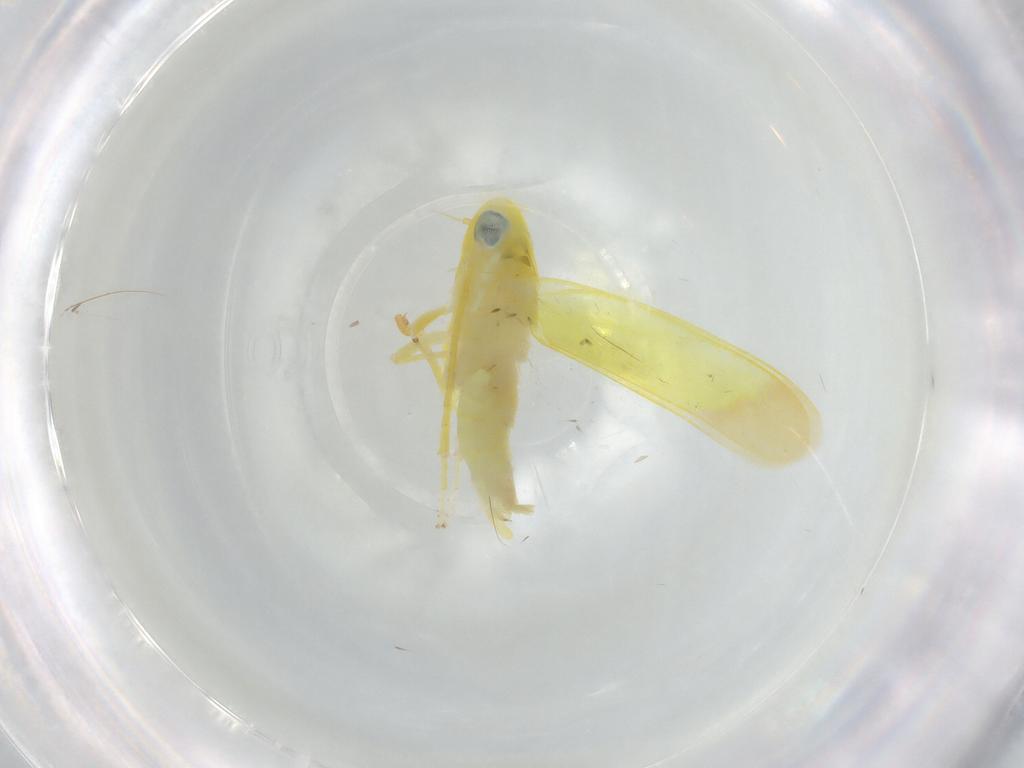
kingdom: Animalia
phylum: Arthropoda
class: Insecta
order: Hemiptera
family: Cicadellidae
